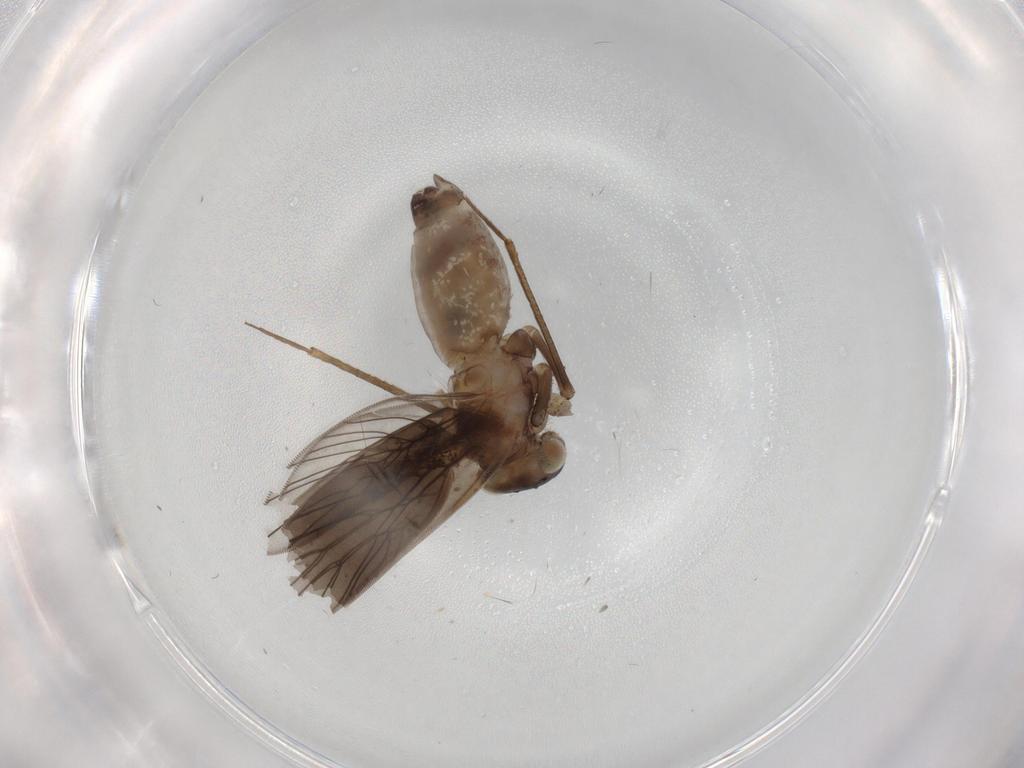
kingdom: Animalia
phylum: Arthropoda
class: Insecta
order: Psocodea
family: Lepidopsocidae
